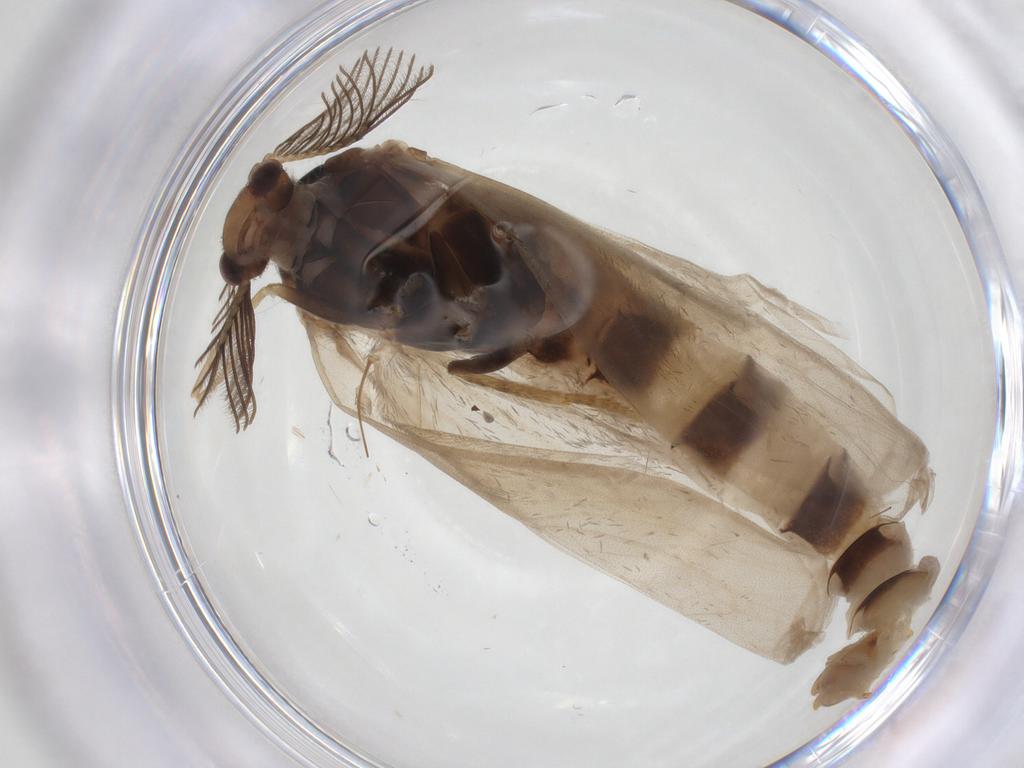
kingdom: Animalia
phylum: Arthropoda
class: Insecta
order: Lepidoptera
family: Psychidae
